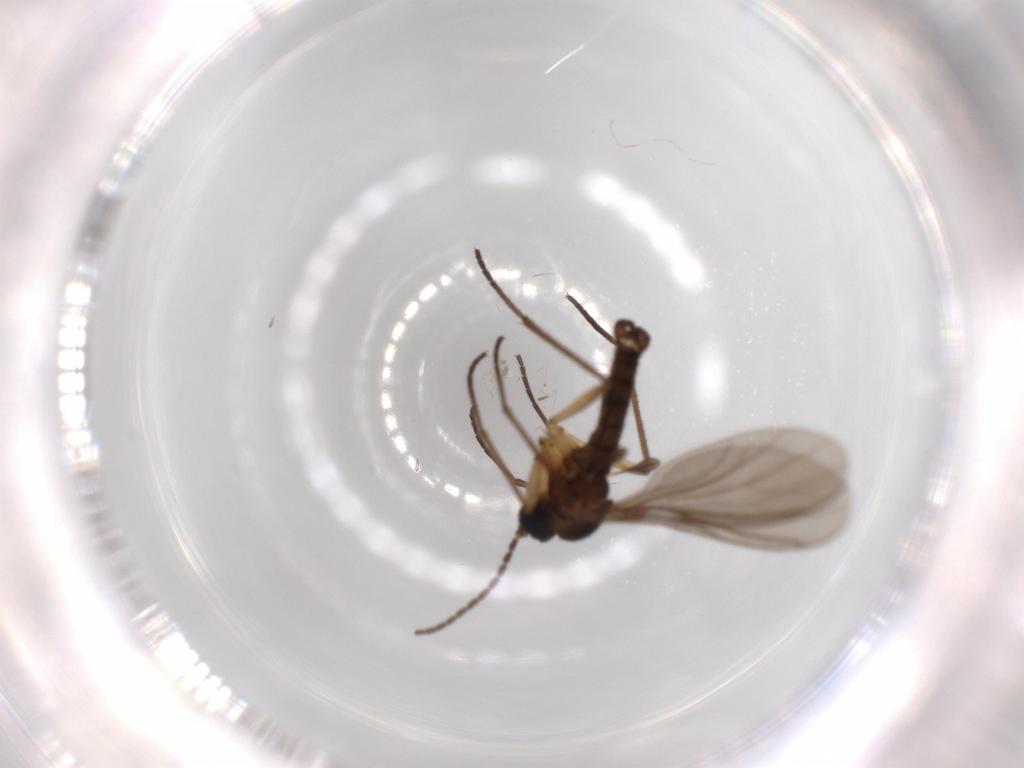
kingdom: Animalia
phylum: Arthropoda
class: Insecta
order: Diptera
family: Sciaridae
